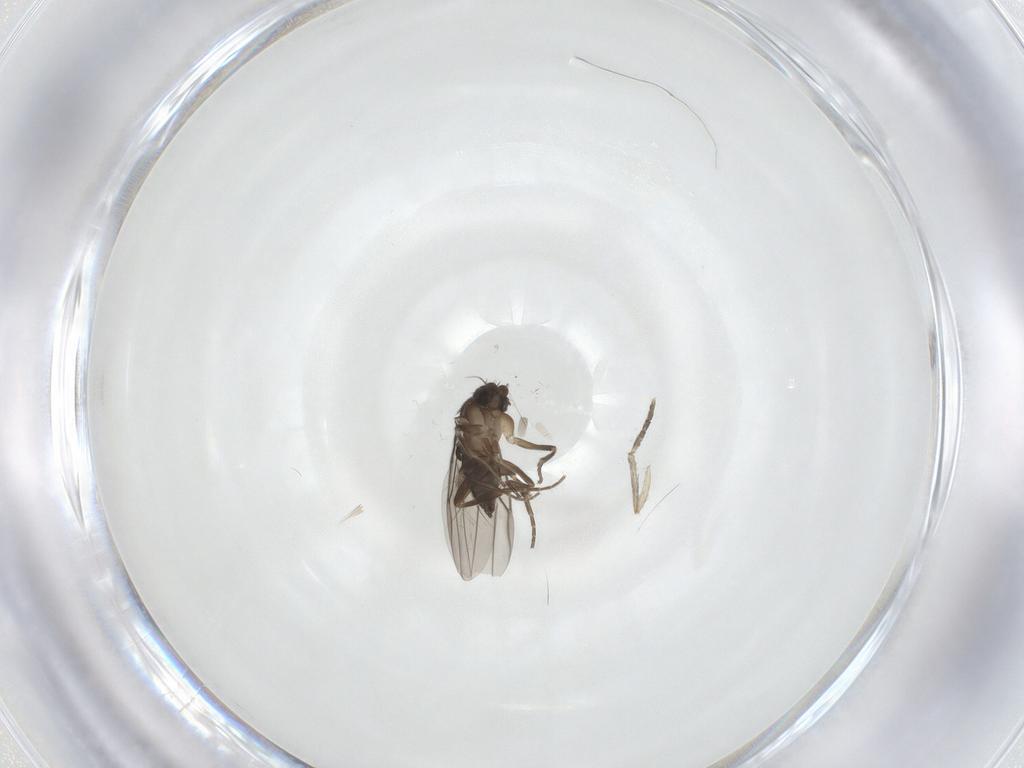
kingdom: Animalia
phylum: Arthropoda
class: Insecta
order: Diptera
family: Phoridae
